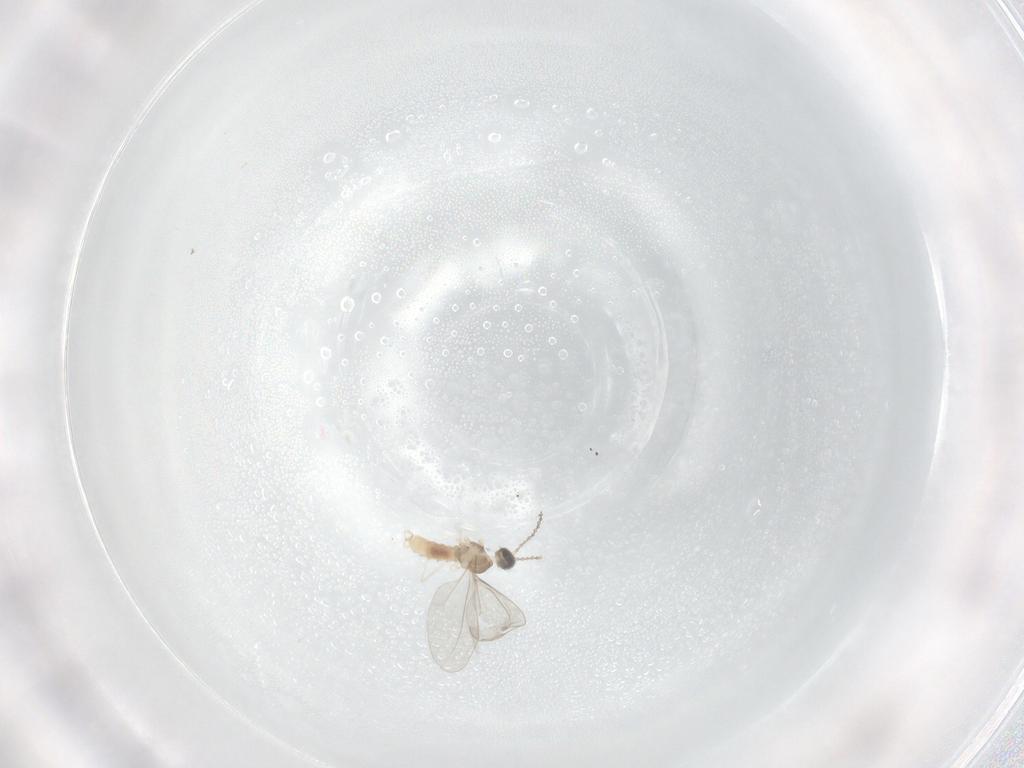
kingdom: Animalia
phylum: Arthropoda
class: Insecta
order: Diptera
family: Cecidomyiidae
